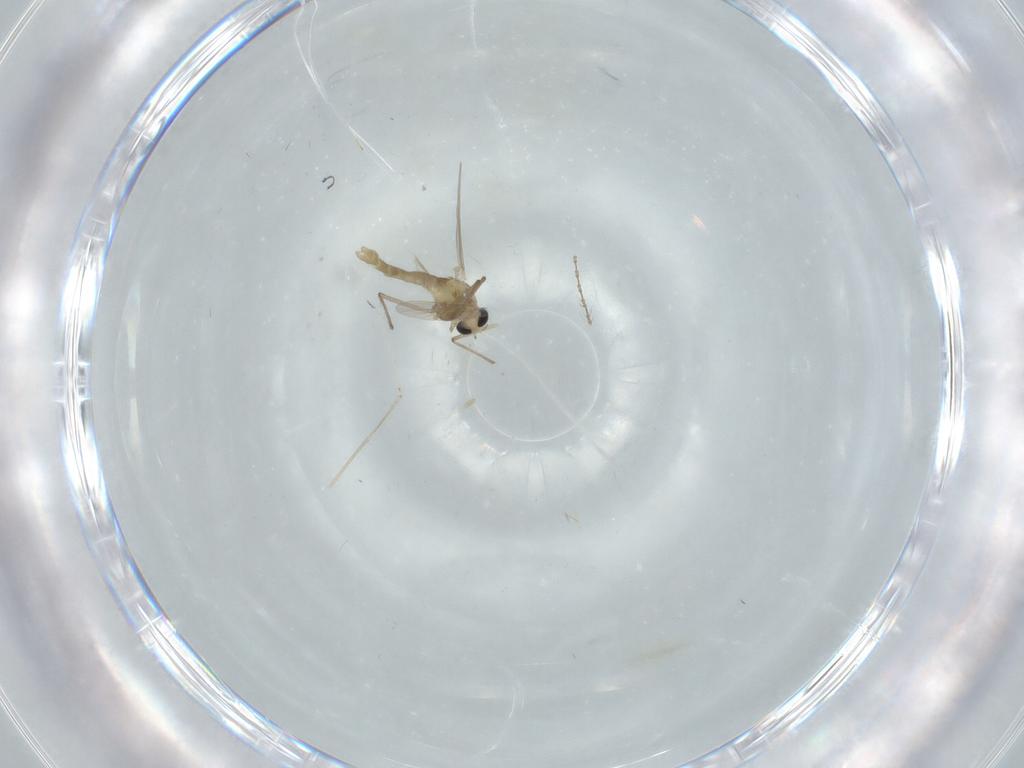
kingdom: Animalia
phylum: Arthropoda
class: Insecta
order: Diptera
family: Cecidomyiidae
